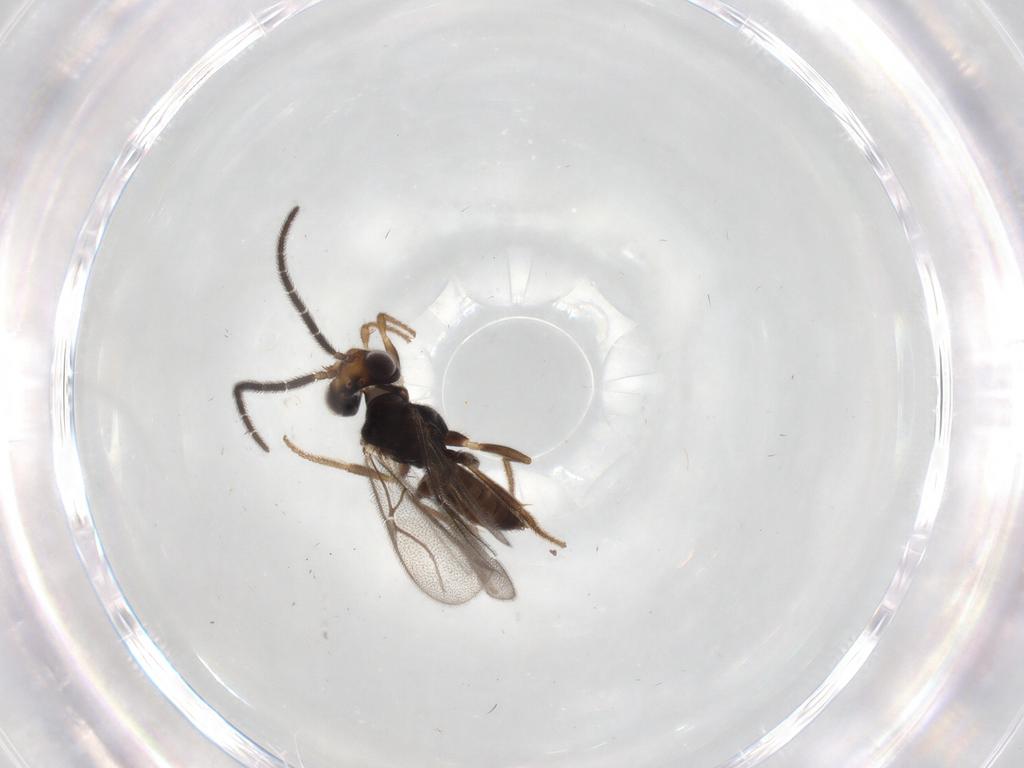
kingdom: Animalia
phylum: Arthropoda
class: Insecta
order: Hymenoptera
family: Dryinidae
